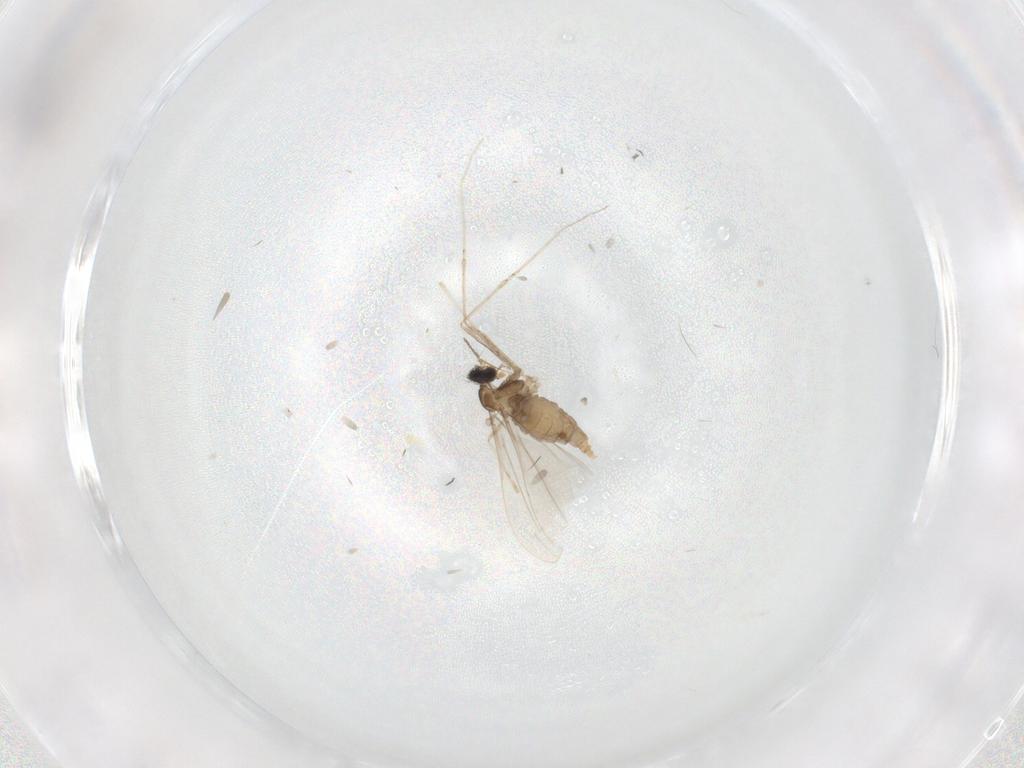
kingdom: Animalia
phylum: Arthropoda
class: Insecta
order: Diptera
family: Cecidomyiidae
